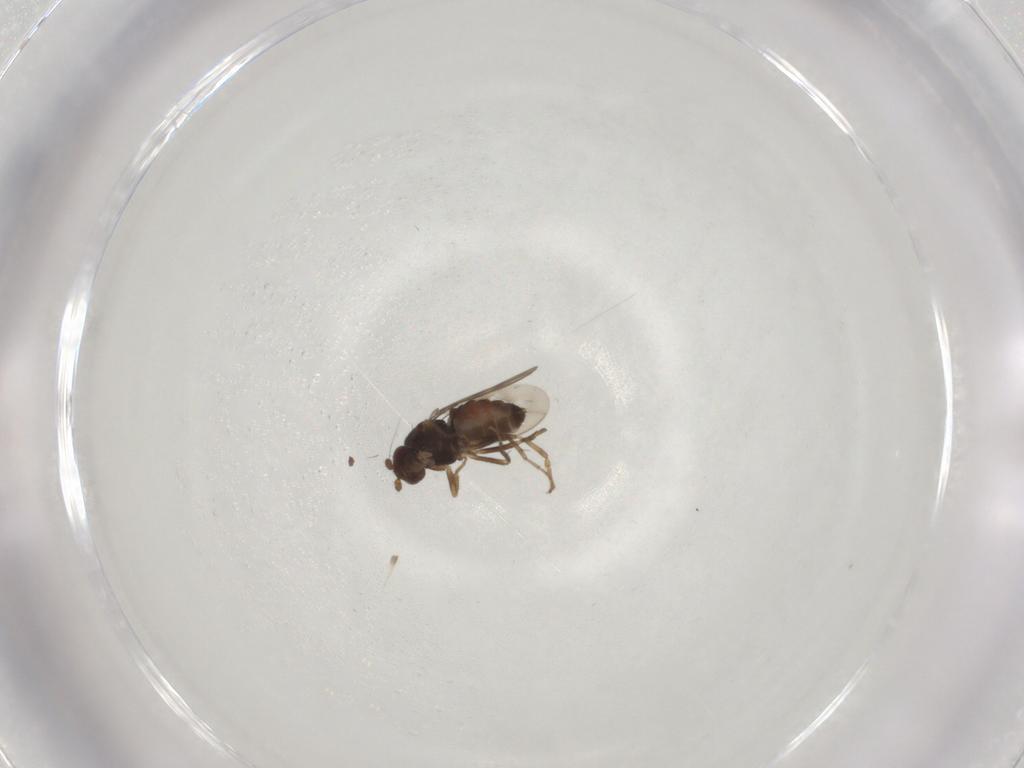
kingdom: Animalia
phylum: Arthropoda
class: Insecta
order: Diptera
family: Sphaeroceridae
